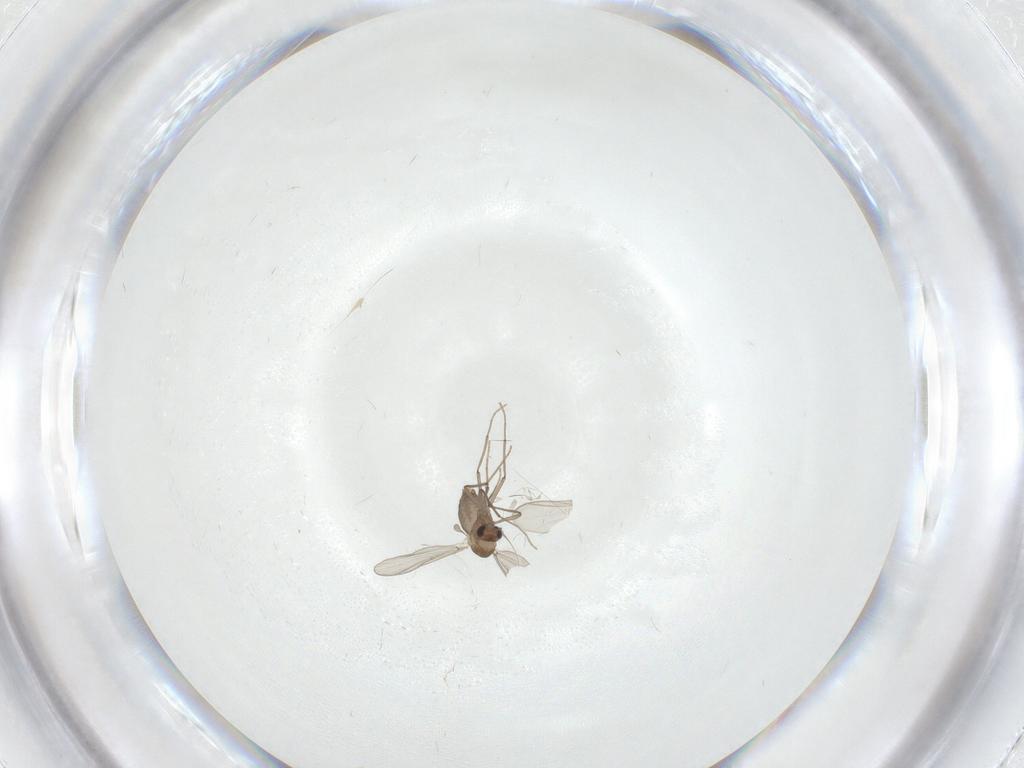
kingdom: Animalia
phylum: Arthropoda
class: Insecta
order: Diptera
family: Chironomidae
